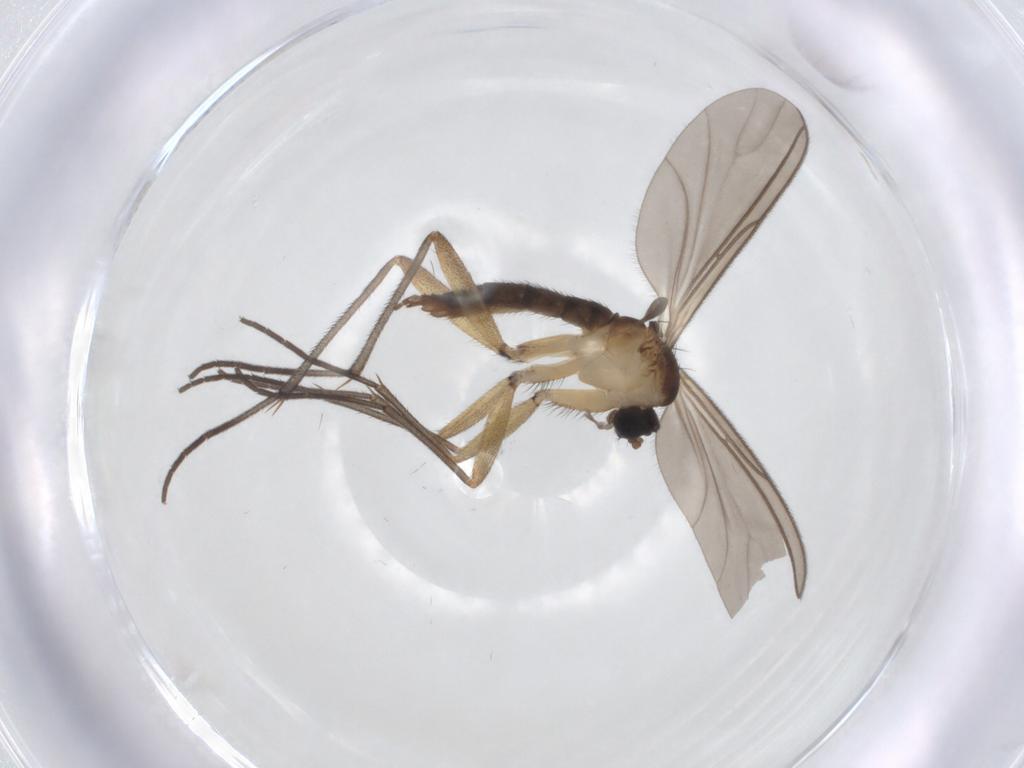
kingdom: Animalia
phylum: Arthropoda
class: Insecta
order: Diptera
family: Sciaridae
